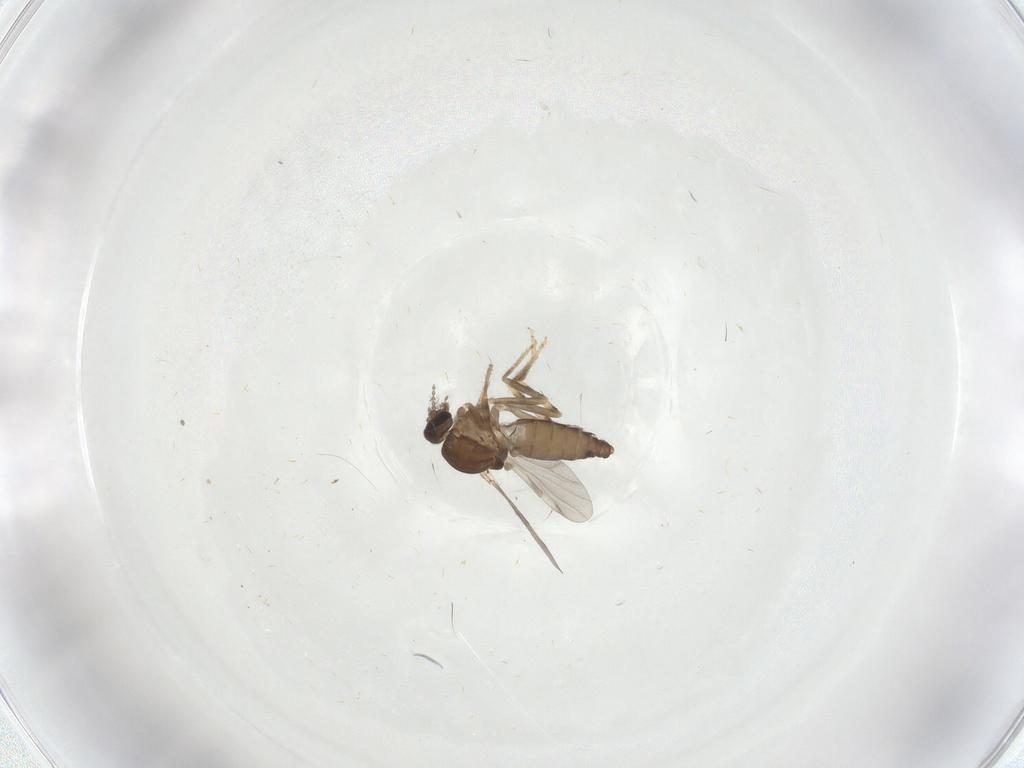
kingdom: Animalia
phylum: Arthropoda
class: Insecta
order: Diptera
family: Ceratopogonidae
